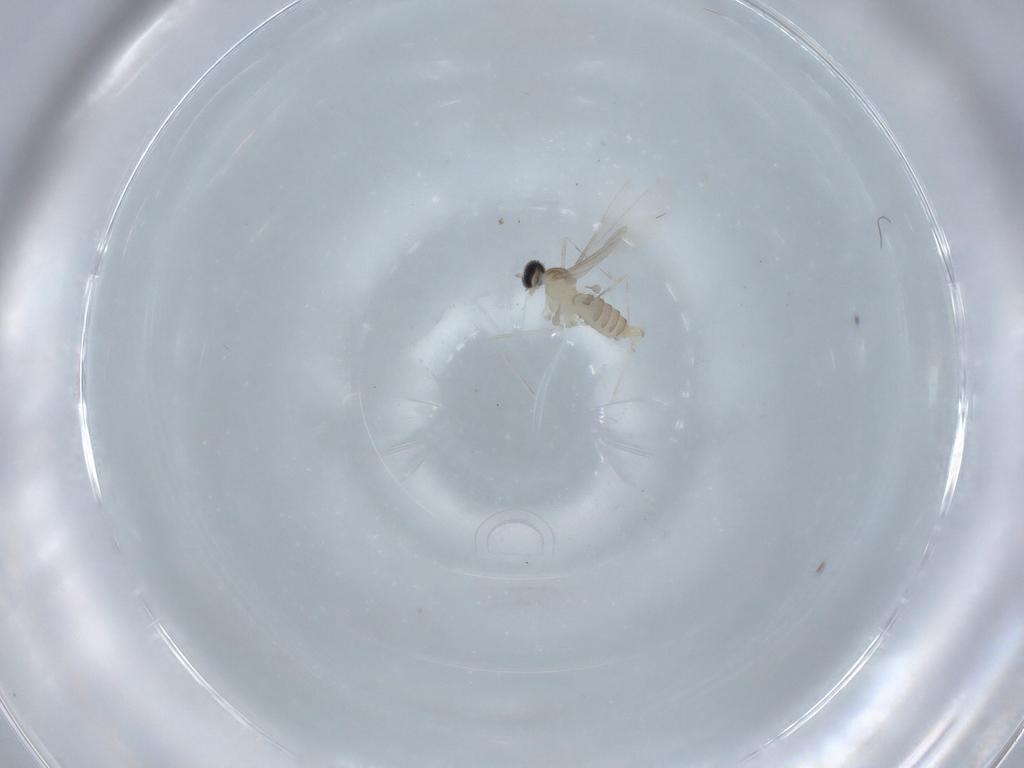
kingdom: Animalia
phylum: Arthropoda
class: Insecta
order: Diptera
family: Cecidomyiidae
